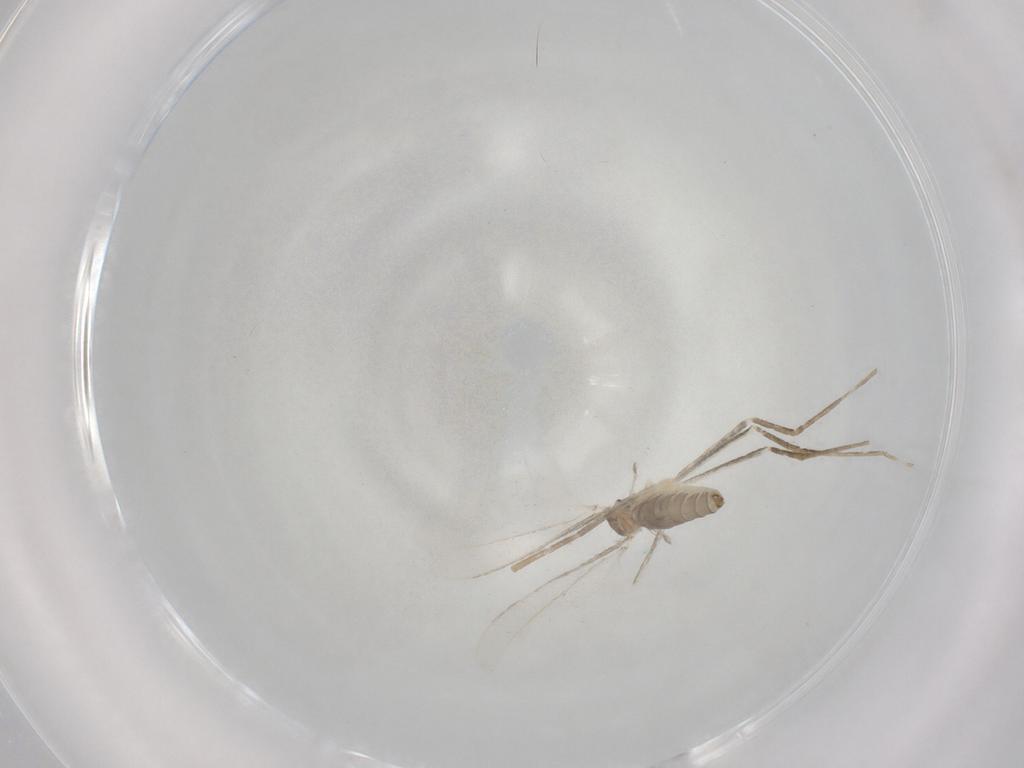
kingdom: Animalia
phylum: Arthropoda
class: Insecta
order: Diptera
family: Cecidomyiidae
